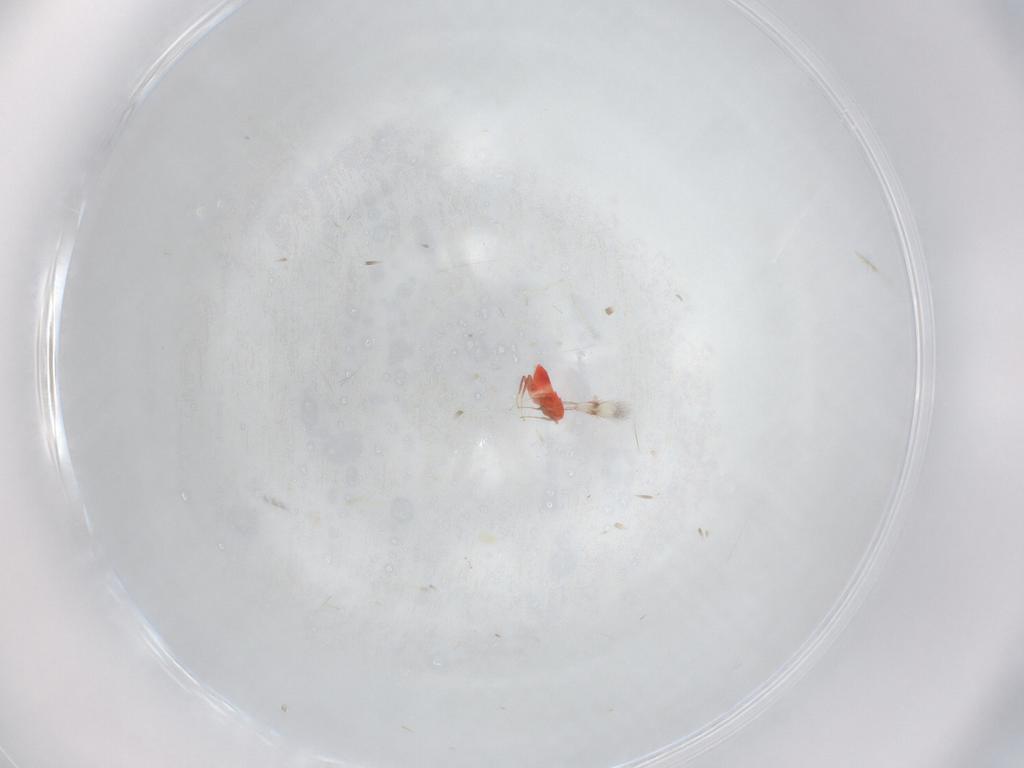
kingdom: Animalia
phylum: Arthropoda
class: Insecta
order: Hymenoptera
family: Trichogrammatidae
